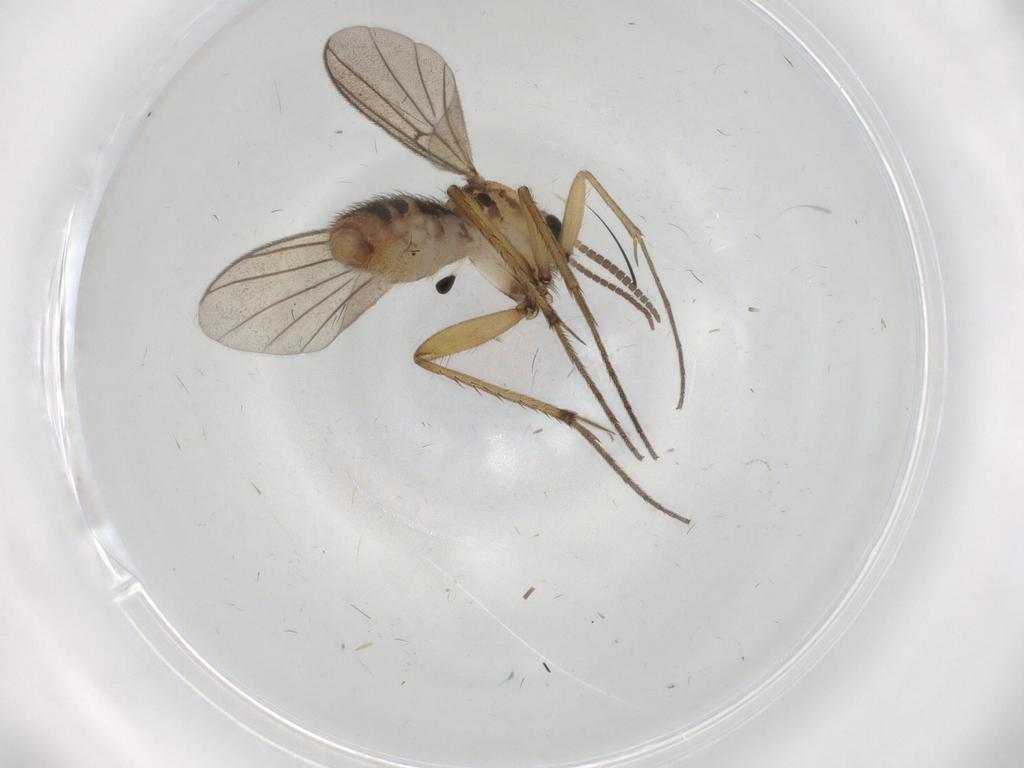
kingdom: Animalia
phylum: Arthropoda
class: Insecta
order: Diptera
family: Mycetophilidae
